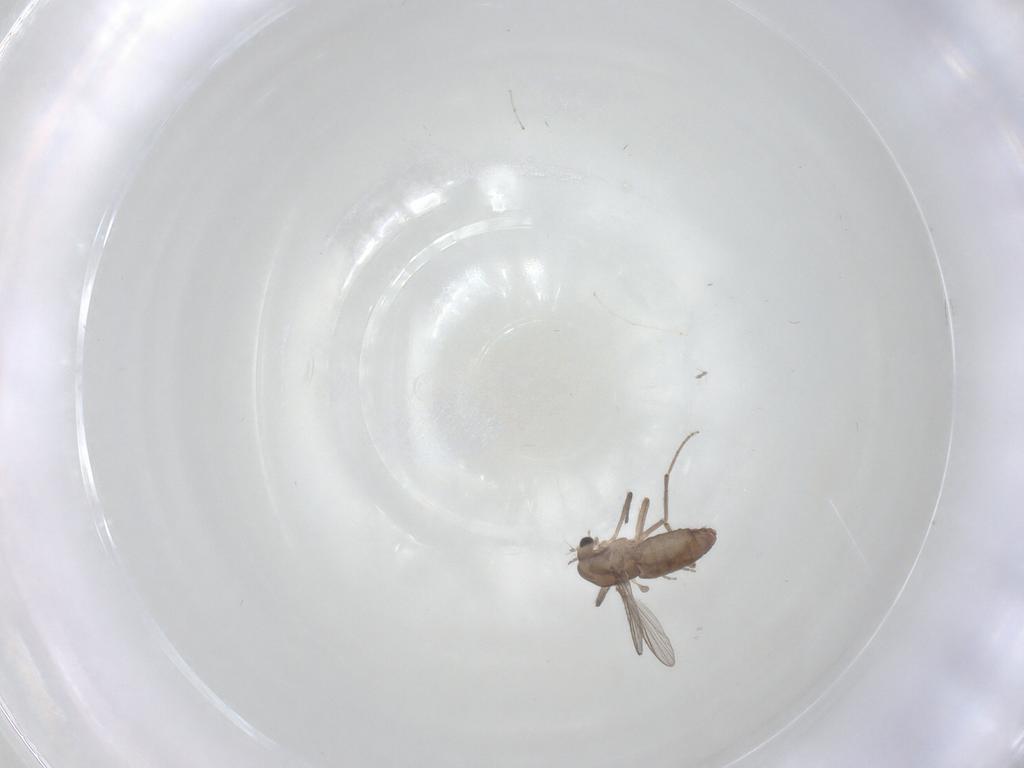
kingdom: Animalia
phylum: Arthropoda
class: Insecta
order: Diptera
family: Chironomidae
